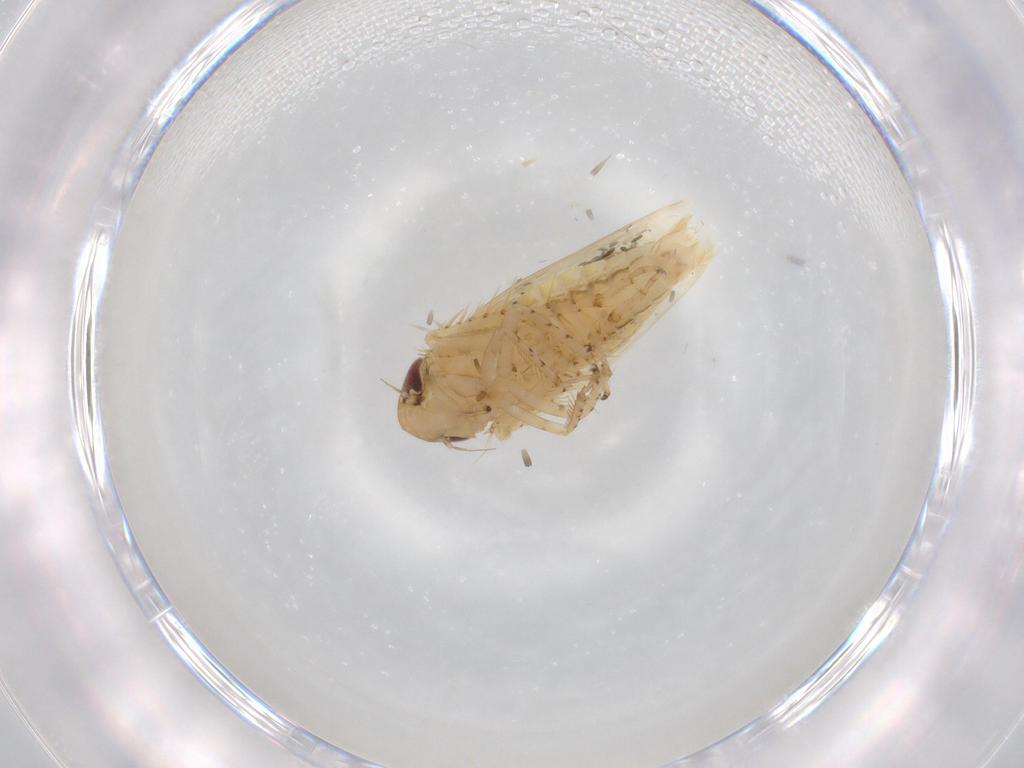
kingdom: Animalia
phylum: Arthropoda
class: Insecta
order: Hemiptera
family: Cicadellidae
